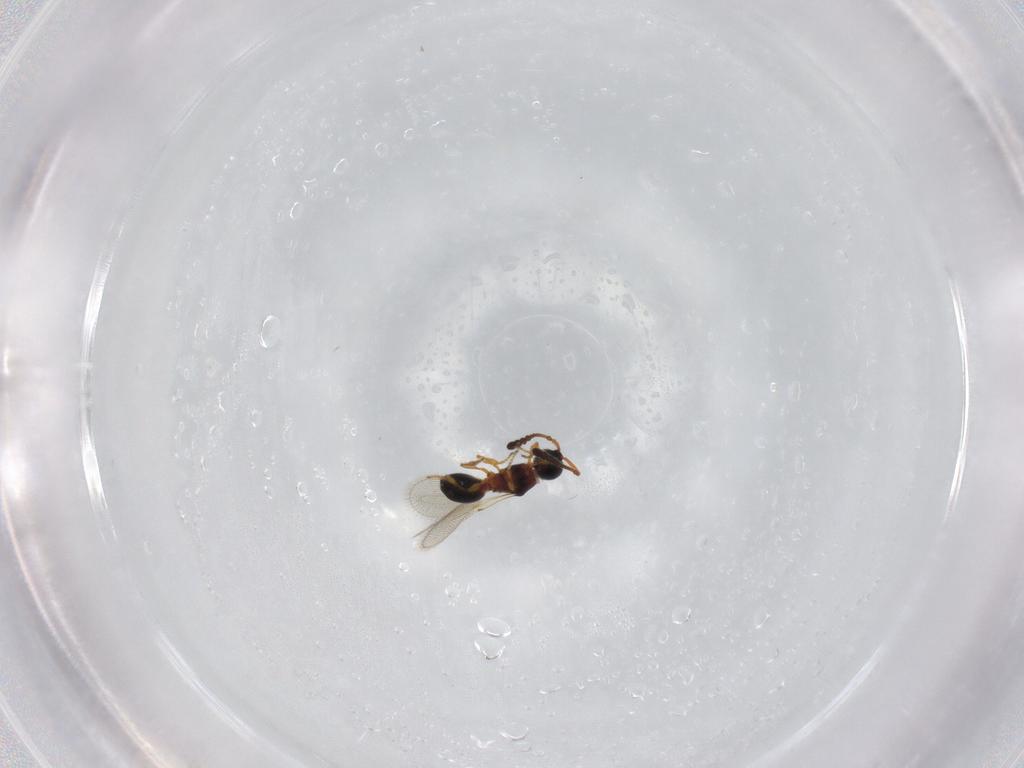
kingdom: Animalia
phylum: Arthropoda
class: Insecta
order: Hymenoptera
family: Diapriidae
